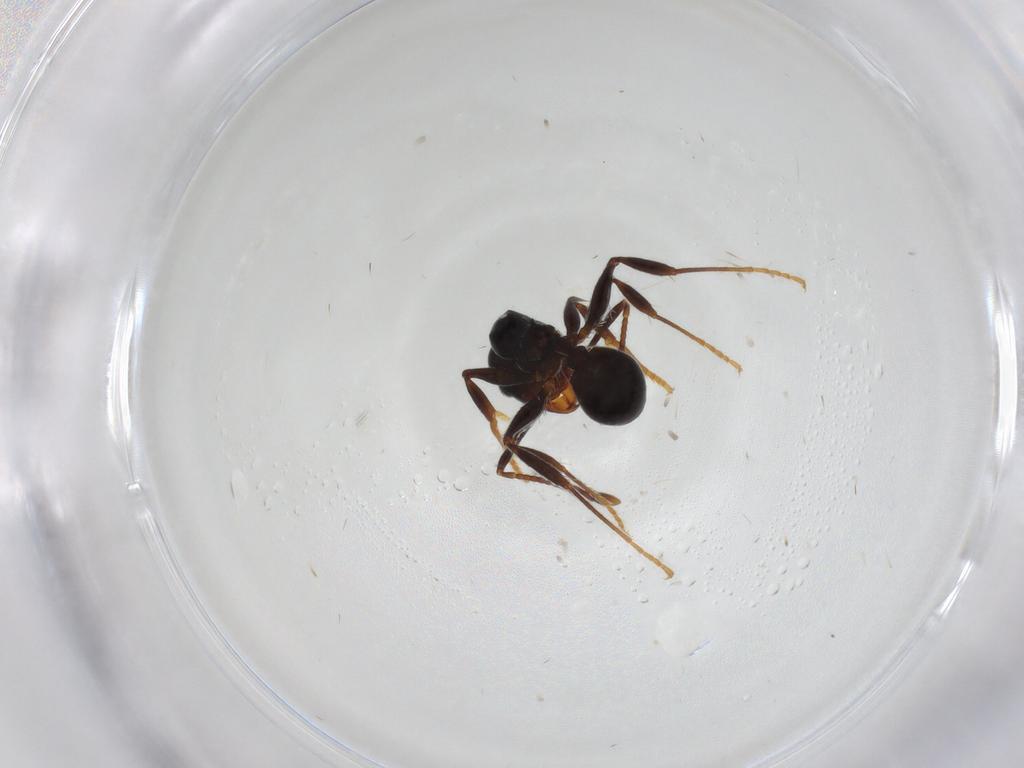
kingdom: Animalia
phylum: Arthropoda
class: Insecta
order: Hymenoptera
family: Formicidae
